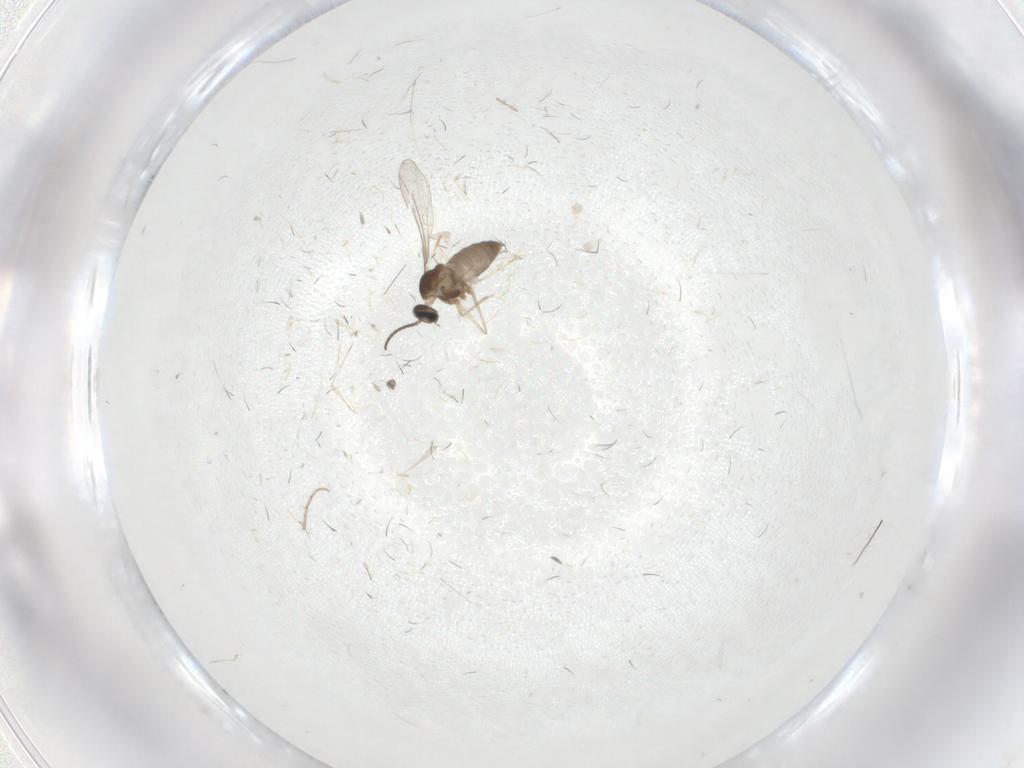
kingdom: Animalia
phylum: Arthropoda
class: Insecta
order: Diptera
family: Cecidomyiidae
